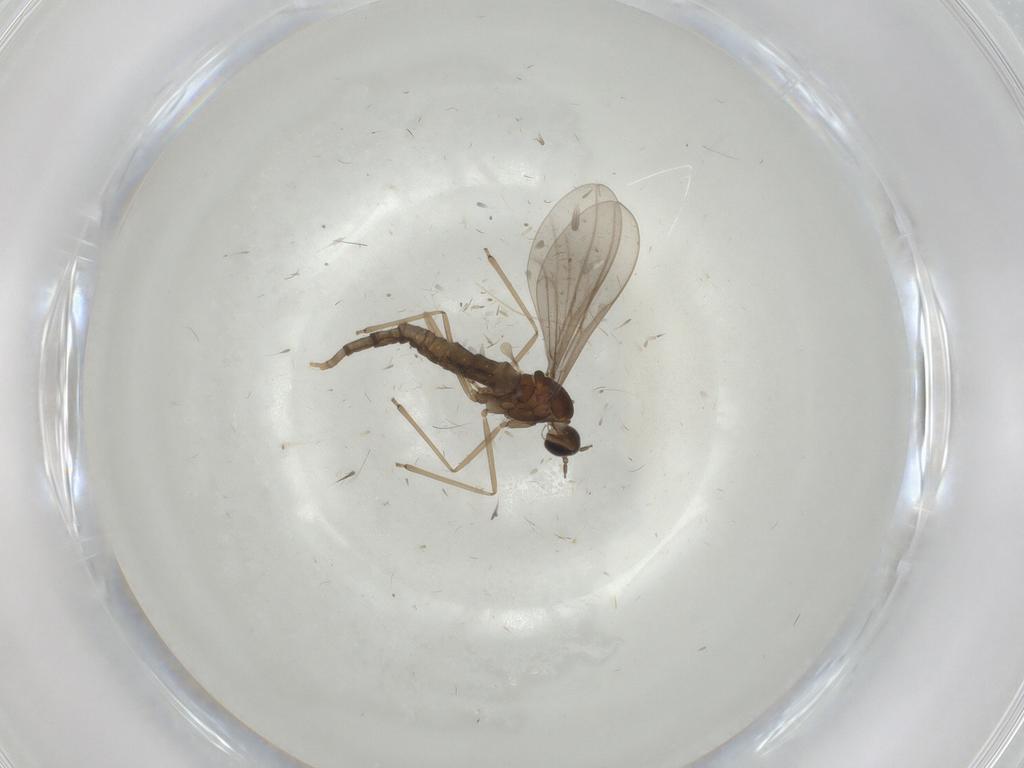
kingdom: Animalia
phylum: Arthropoda
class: Insecta
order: Diptera
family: Cecidomyiidae
